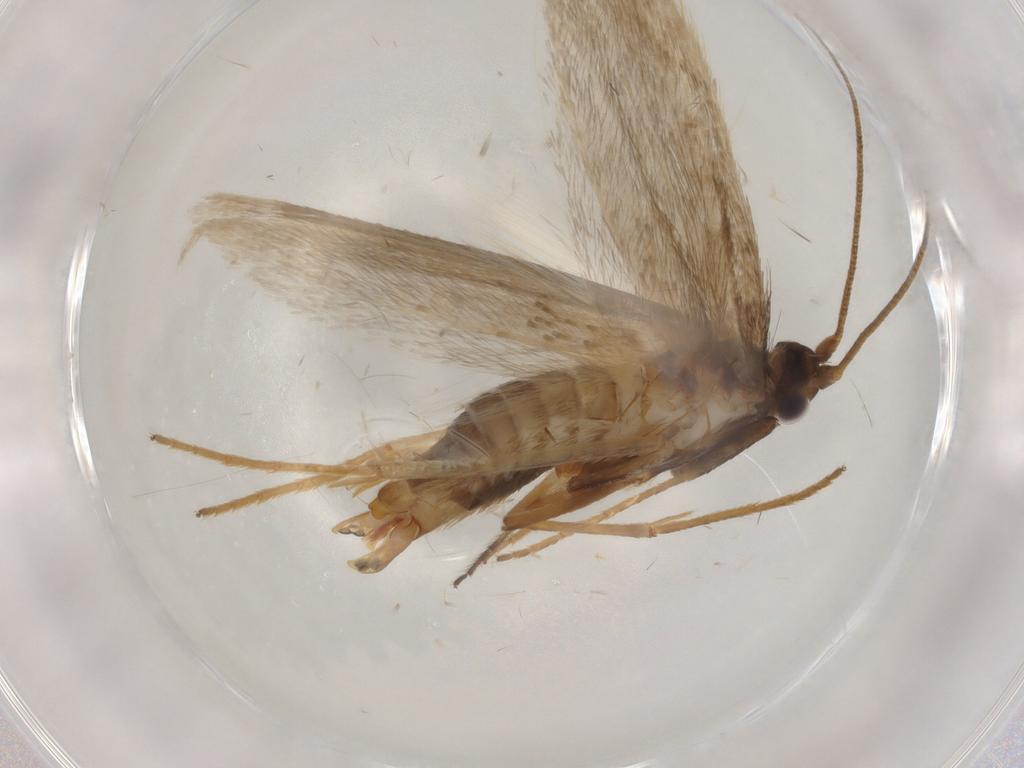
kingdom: Animalia
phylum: Arthropoda
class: Insecta
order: Lepidoptera
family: Adelidae
